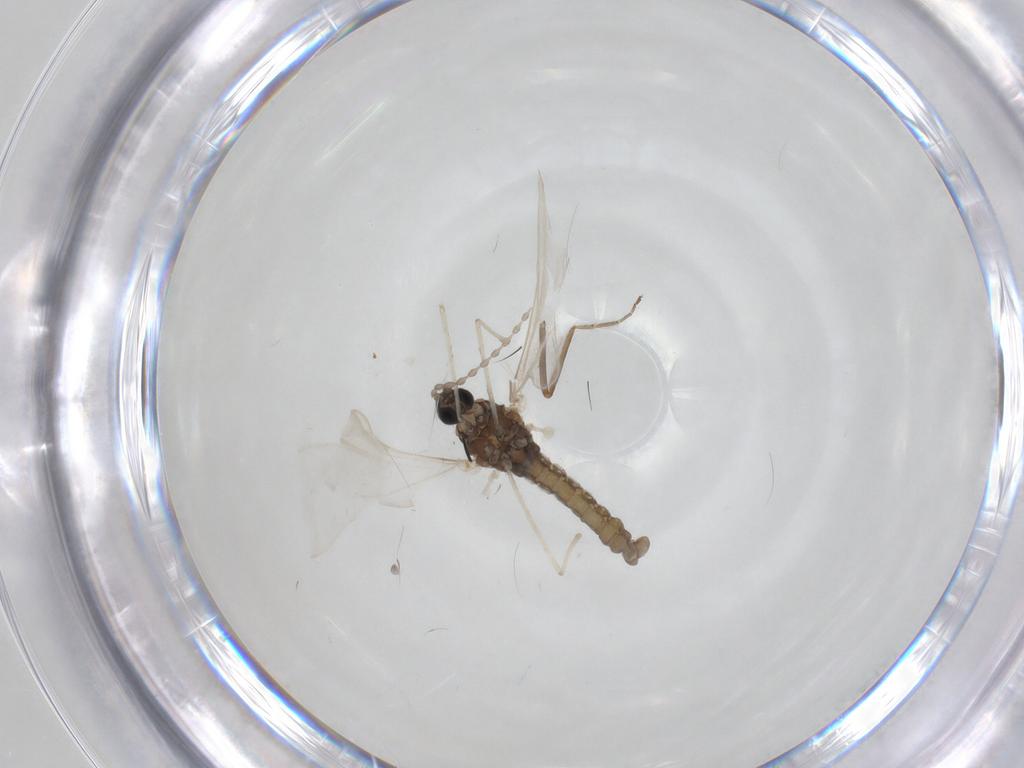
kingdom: Animalia
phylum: Arthropoda
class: Insecta
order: Diptera
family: Cecidomyiidae
